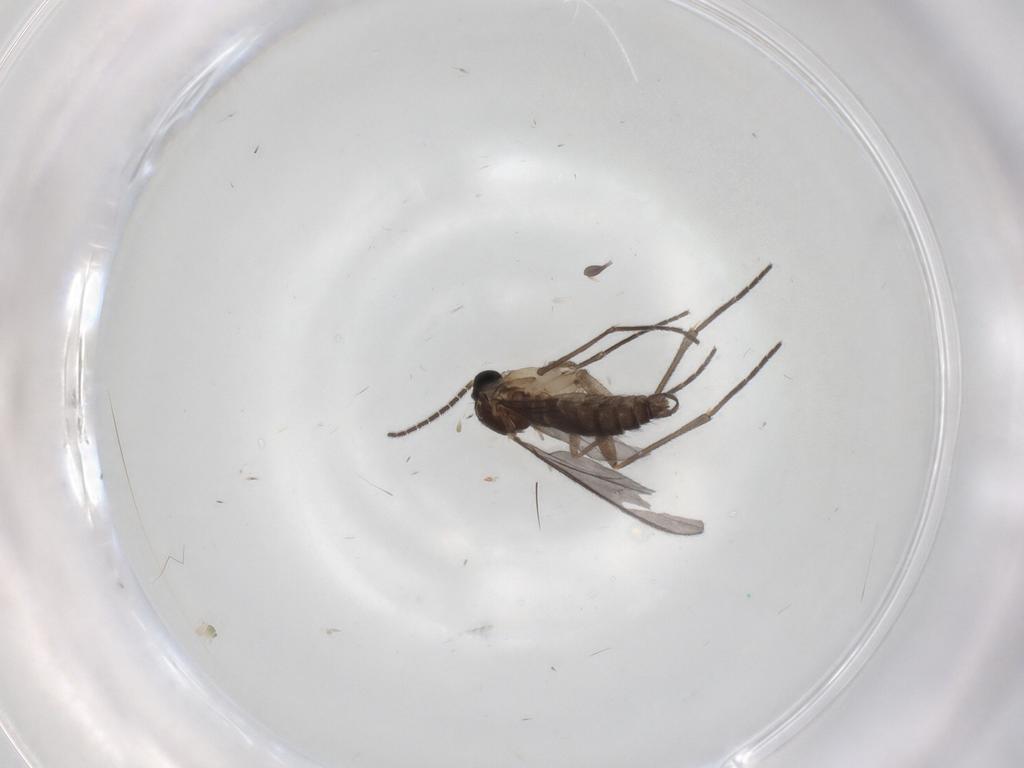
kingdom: Animalia
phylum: Arthropoda
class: Insecta
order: Diptera
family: Sciaridae
